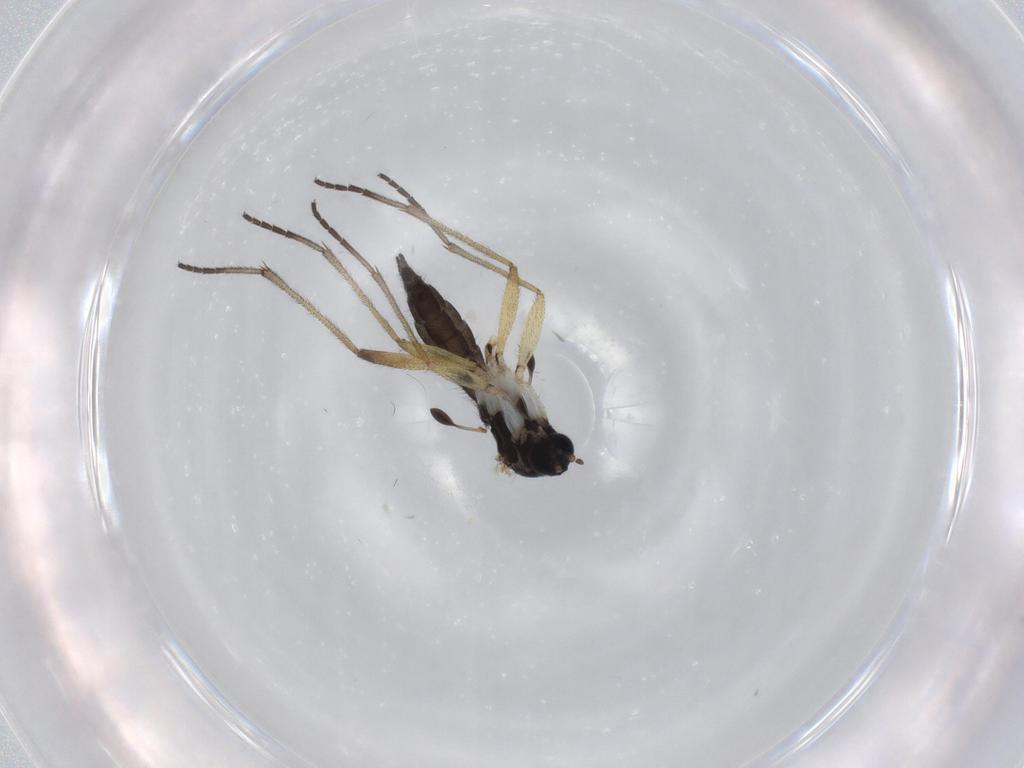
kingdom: Animalia
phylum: Arthropoda
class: Insecta
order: Diptera
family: Sciaridae
